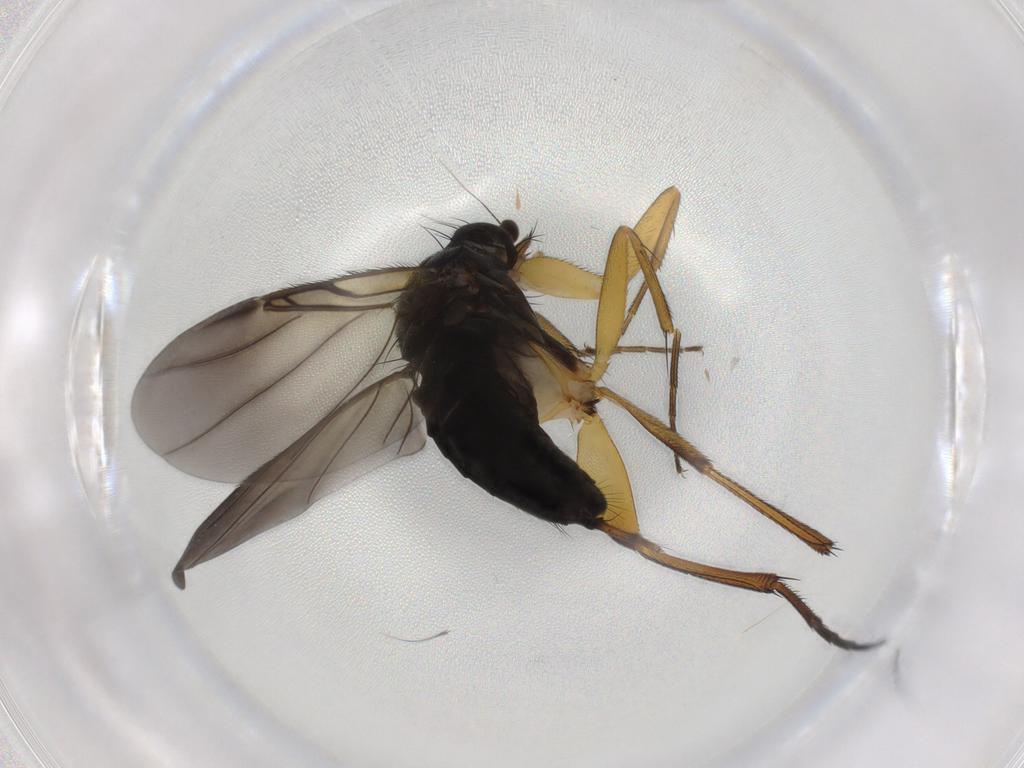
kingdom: Animalia
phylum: Arthropoda
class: Insecta
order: Diptera
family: Phoridae
